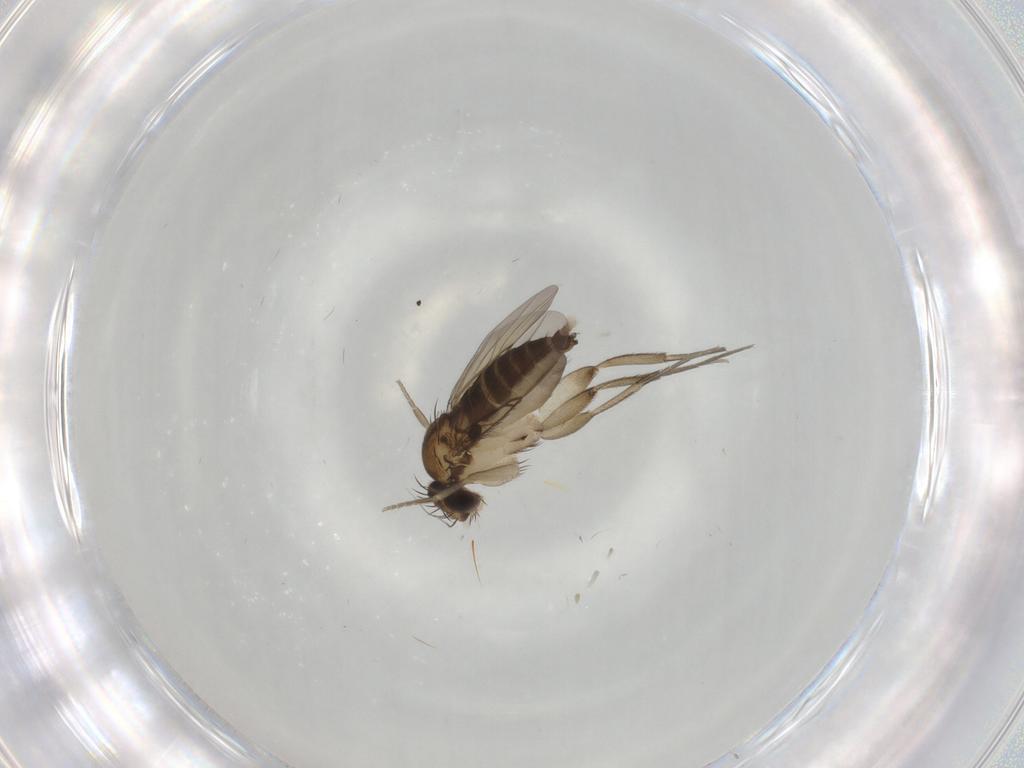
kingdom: Animalia
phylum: Arthropoda
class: Insecta
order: Diptera
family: Phoridae
